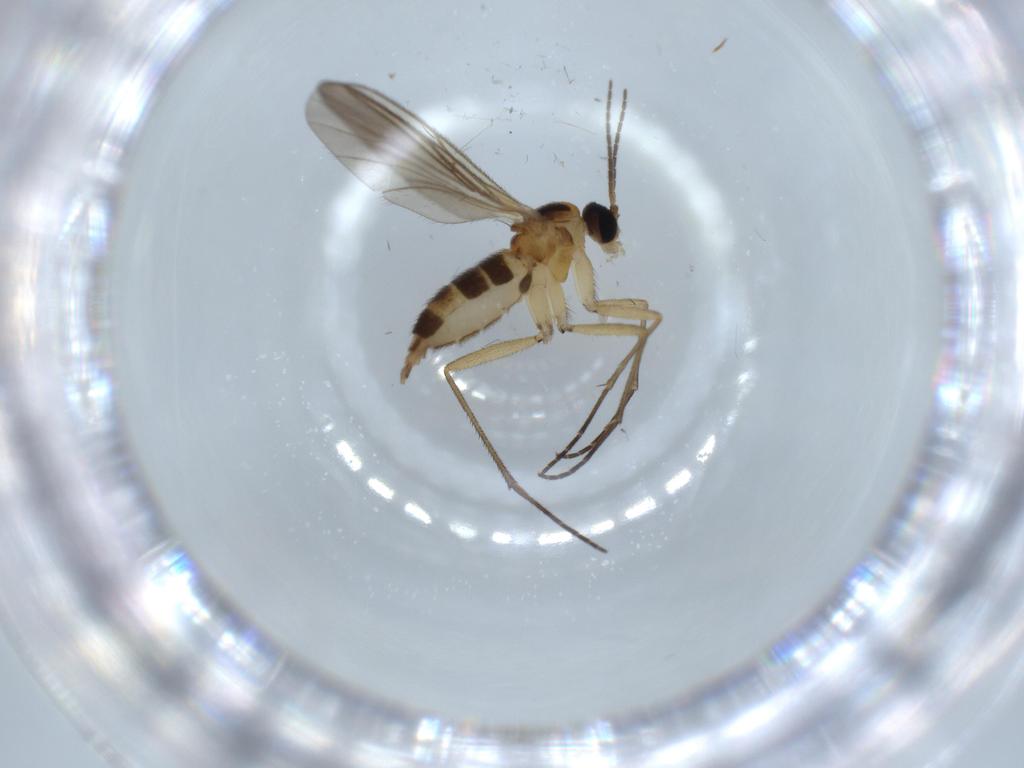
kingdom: Animalia
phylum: Arthropoda
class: Insecta
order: Diptera
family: Sciaridae
